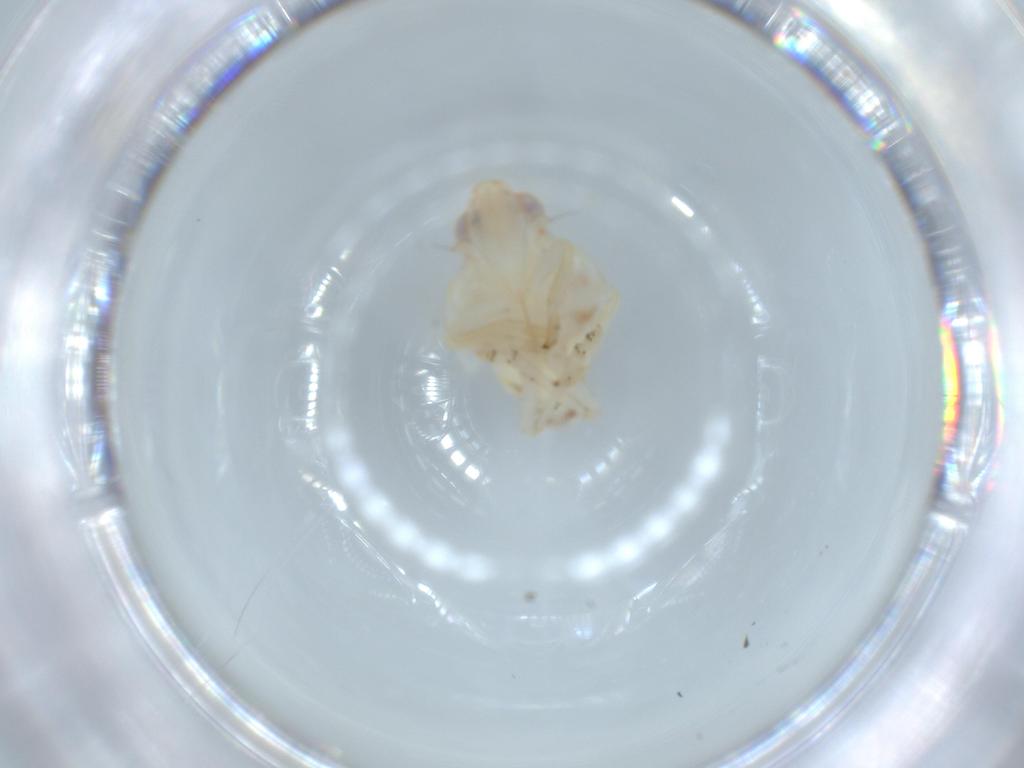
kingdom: Animalia
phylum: Arthropoda
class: Insecta
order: Hemiptera
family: Nogodinidae
